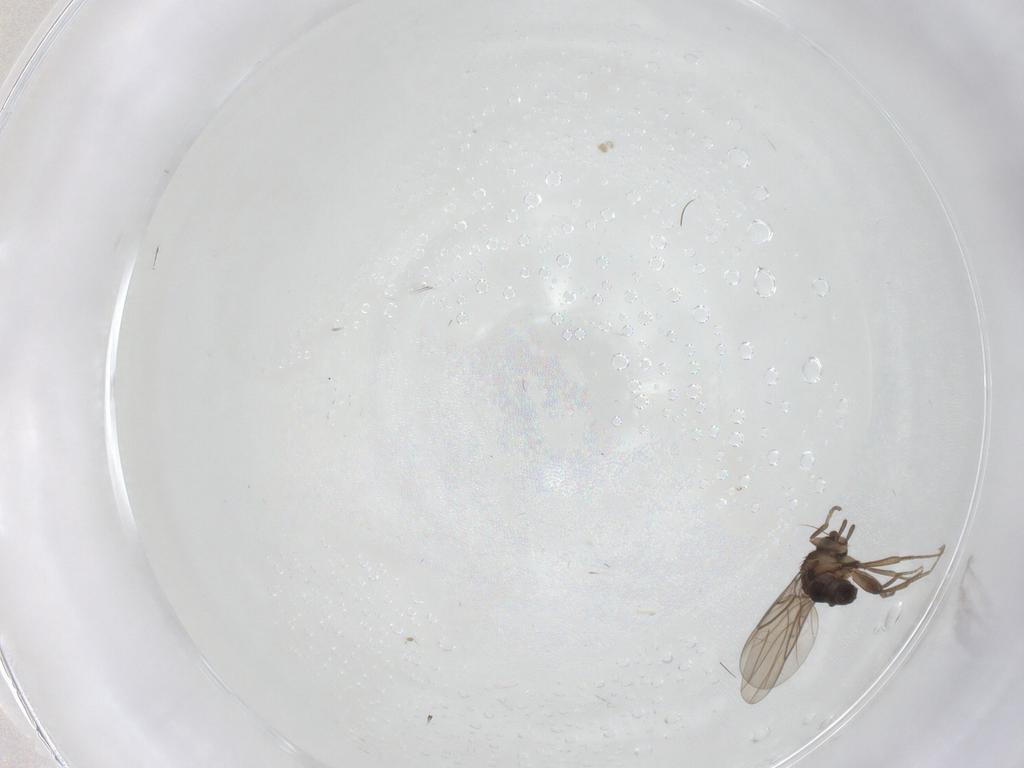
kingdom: Animalia
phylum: Arthropoda
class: Insecta
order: Diptera
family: Phoridae
